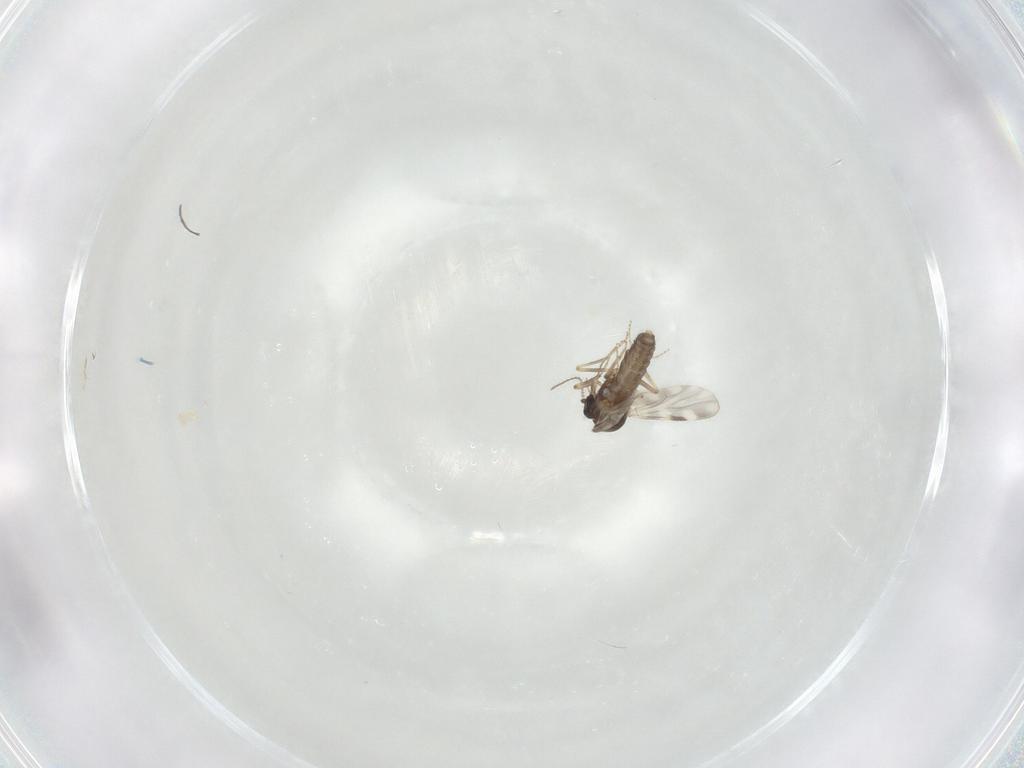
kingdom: Animalia
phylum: Arthropoda
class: Insecta
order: Diptera
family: Ceratopogonidae
